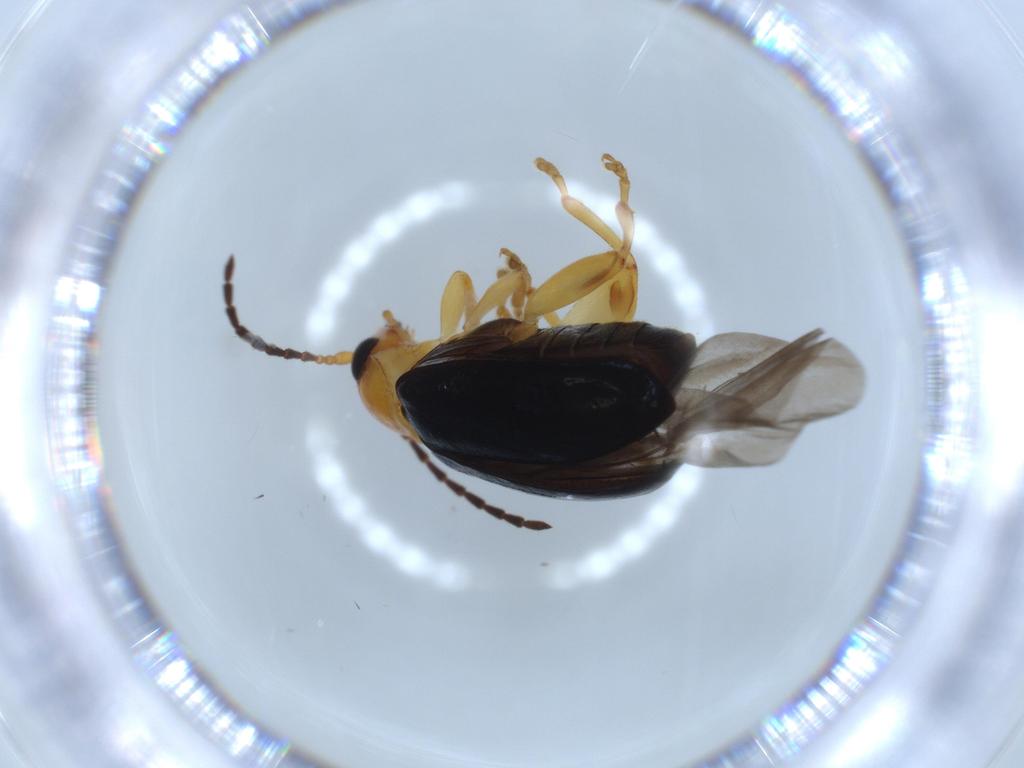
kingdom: Animalia
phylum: Arthropoda
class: Insecta
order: Coleoptera
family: Chrysomelidae
